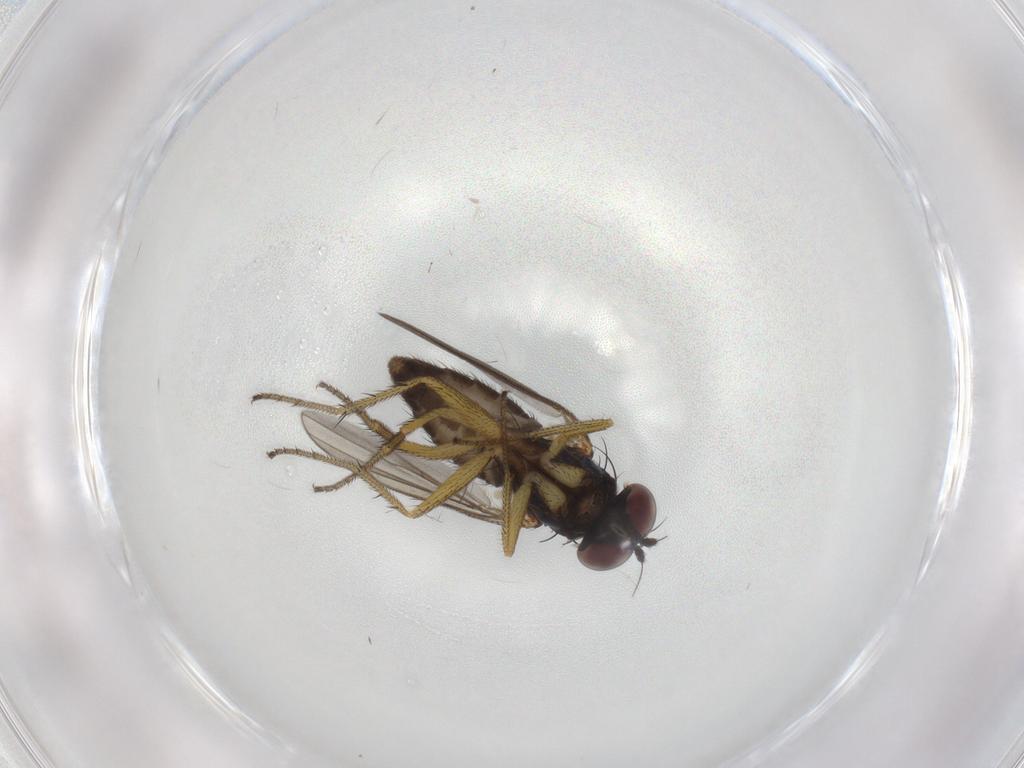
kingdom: Animalia
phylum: Arthropoda
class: Insecta
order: Diptera
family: Dolichopodidae
